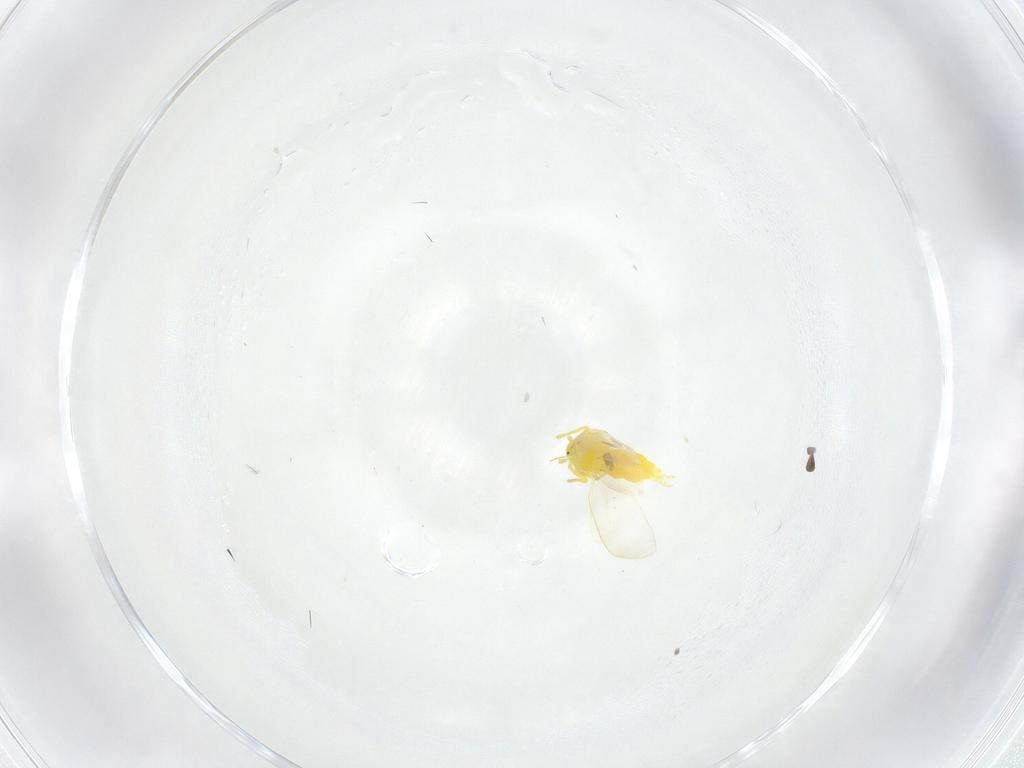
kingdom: Animalia
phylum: Arthropoda
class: Insecta
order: Hemiptera
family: Aleyrodidae
